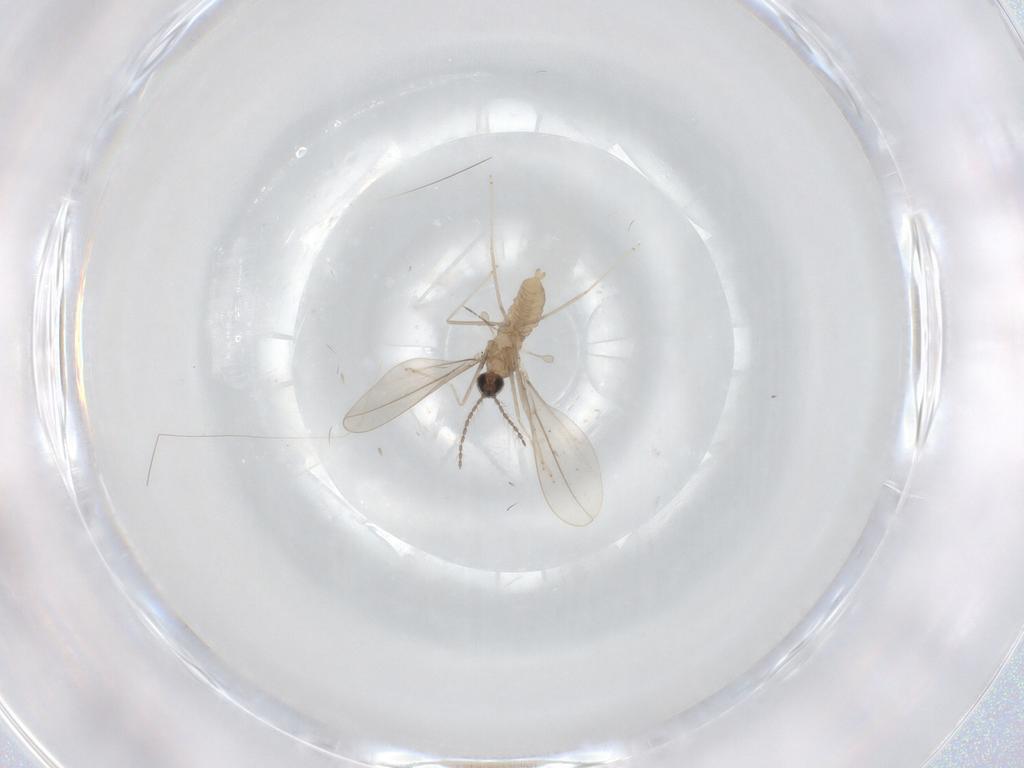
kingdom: Animalia
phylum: Arthropoda
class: Insecta
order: Diptera
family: Cecidomyiidae
